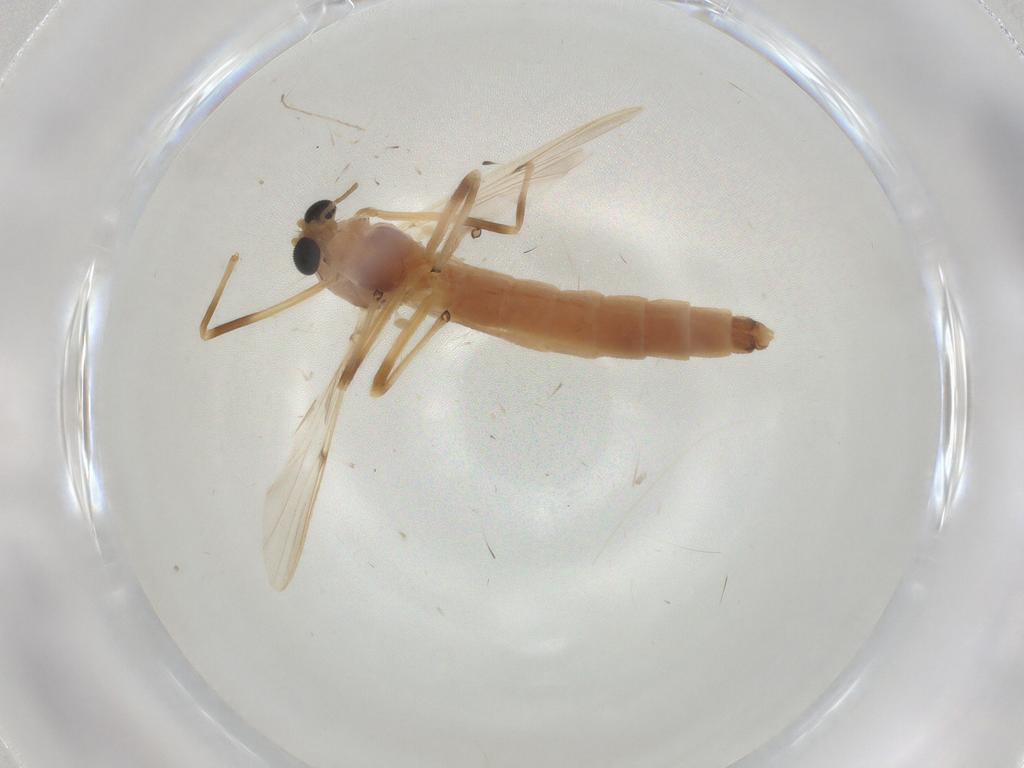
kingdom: Animalia
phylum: Arthropoda
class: Insecta
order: Diptera
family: Chironomidae
